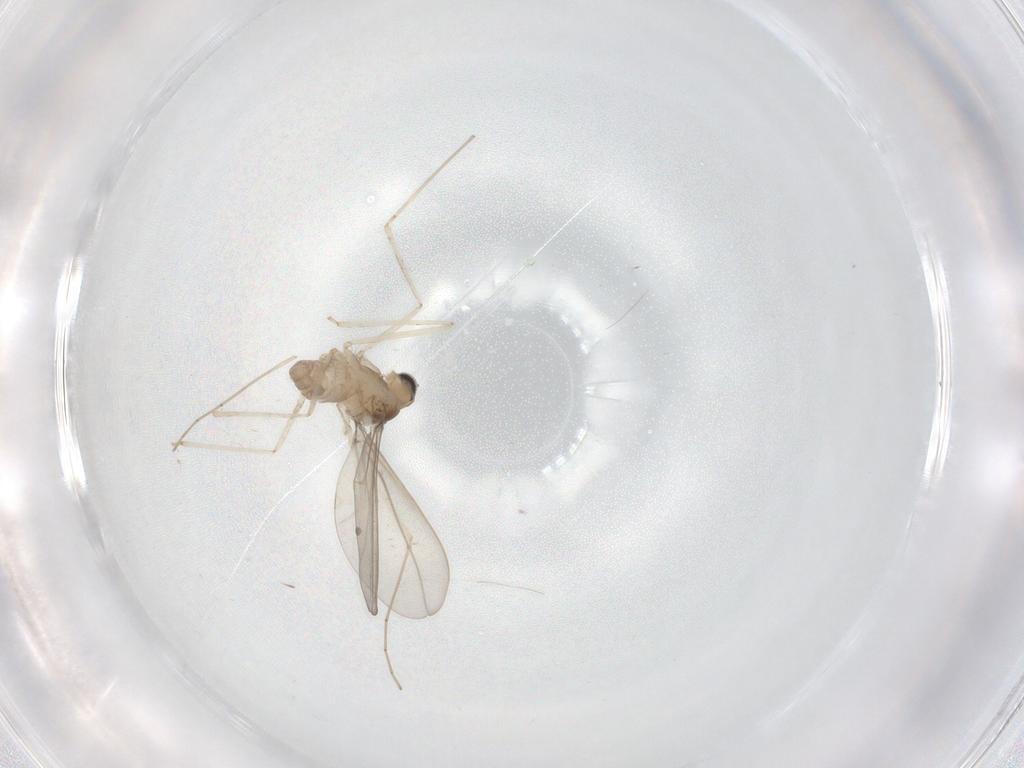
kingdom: Animalia
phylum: Arthropoda
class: Insecta
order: Diptera
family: Cecidomyiidae
